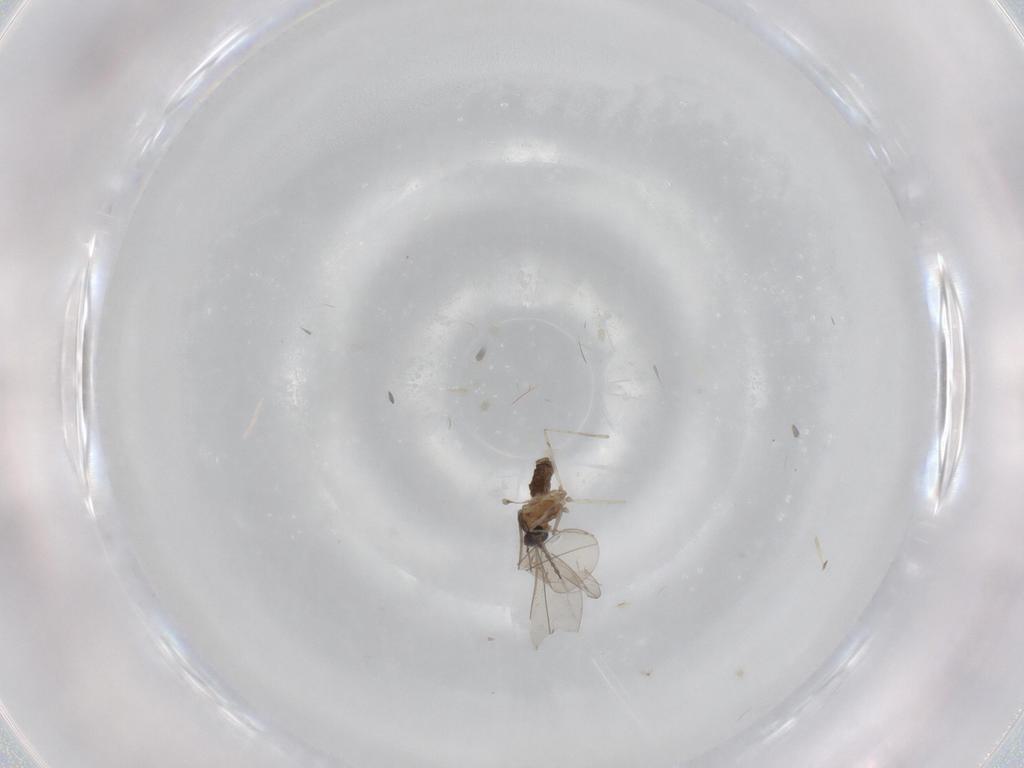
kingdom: Animalia
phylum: Arthropoda
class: Insecta
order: Diptera
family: Cecidomyiidae
